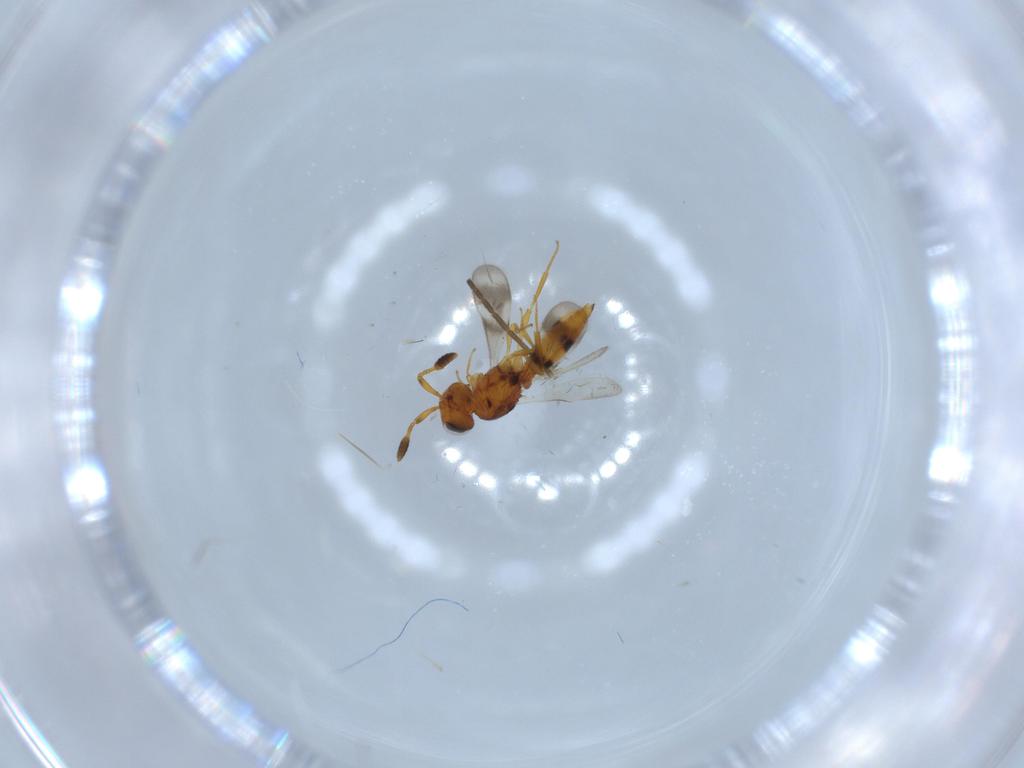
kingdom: Animalia
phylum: Arthropoda
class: Insecta
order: Hymenoptera
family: Scelionidae
